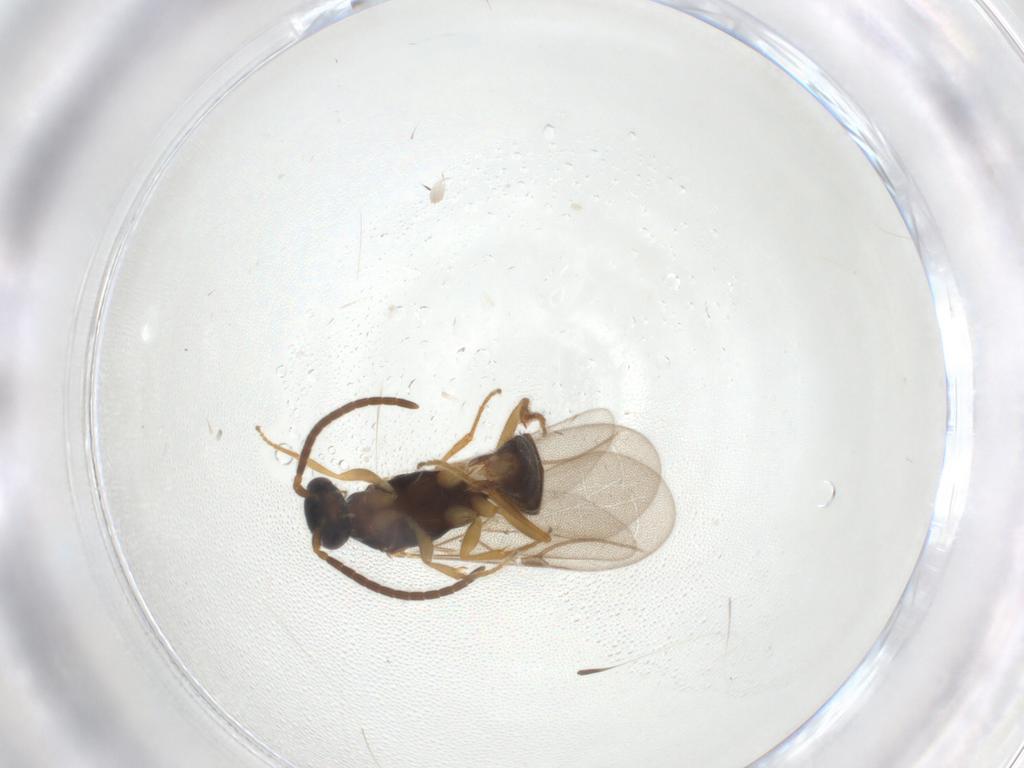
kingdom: Animalia
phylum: Arthropoda
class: Insecta
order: Hymenoptera
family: Bethylidae
